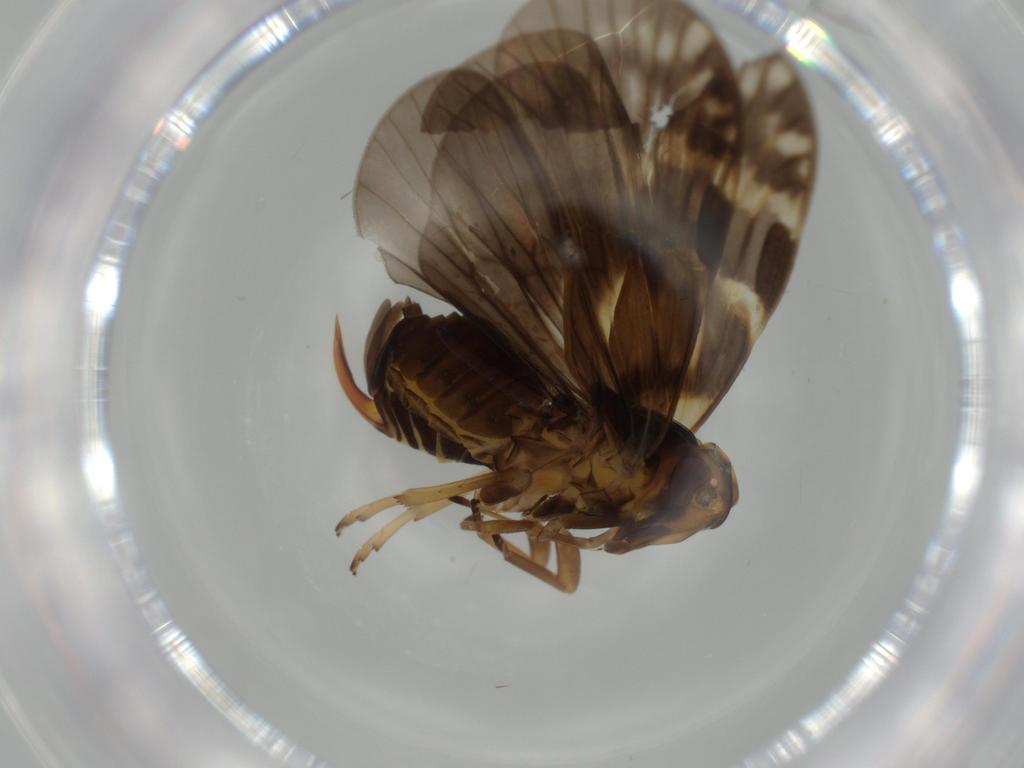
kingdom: Animalia
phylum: Arthropoda
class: Insecta
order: Hemiptera
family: Cixiidae
